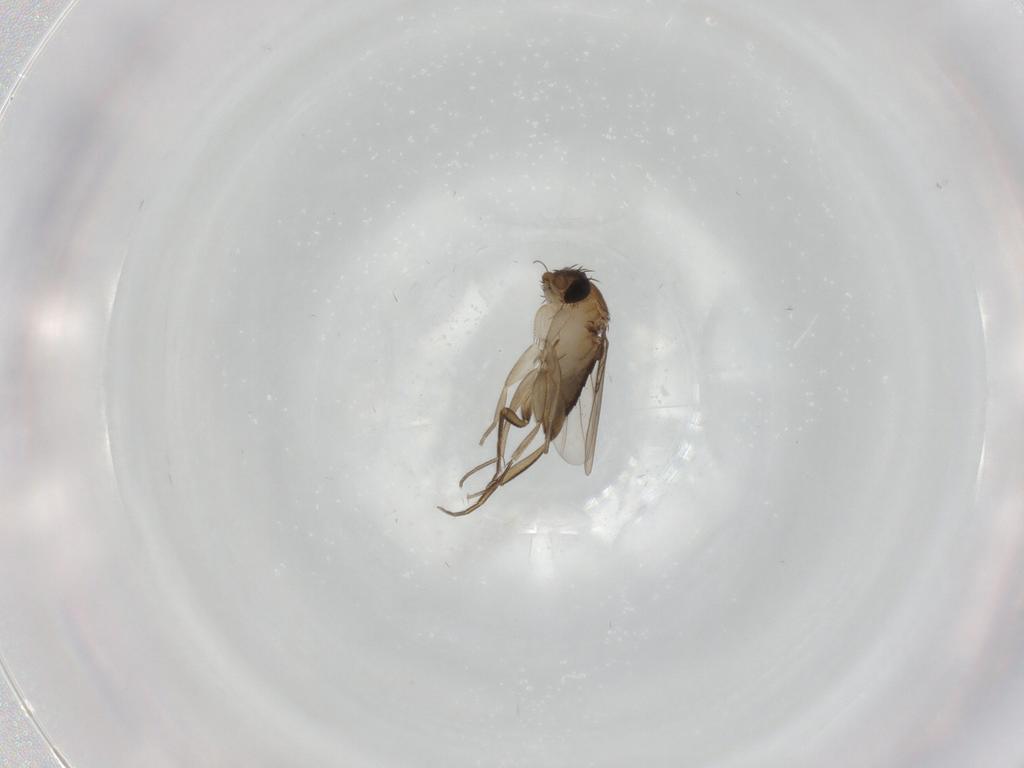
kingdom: Animalia
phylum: Arthropoda
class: Insecta
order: Diptera
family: Phoridae
